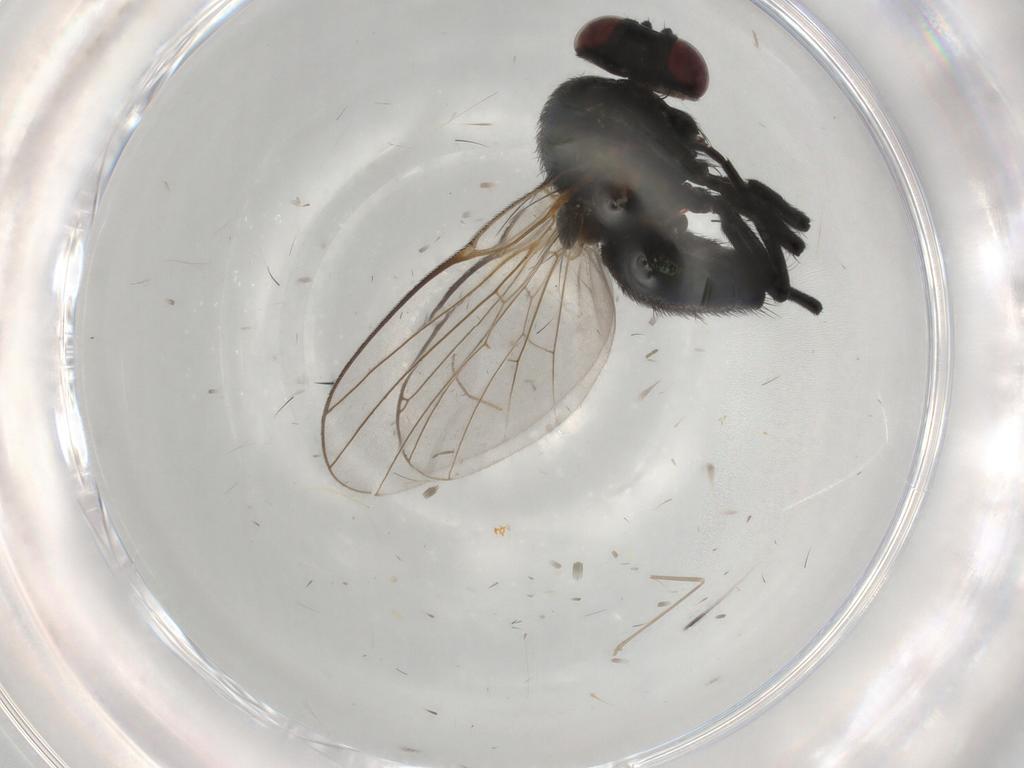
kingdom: Animalia
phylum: Arthropoda
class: Insecta
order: Diptera
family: Agromyzidae
